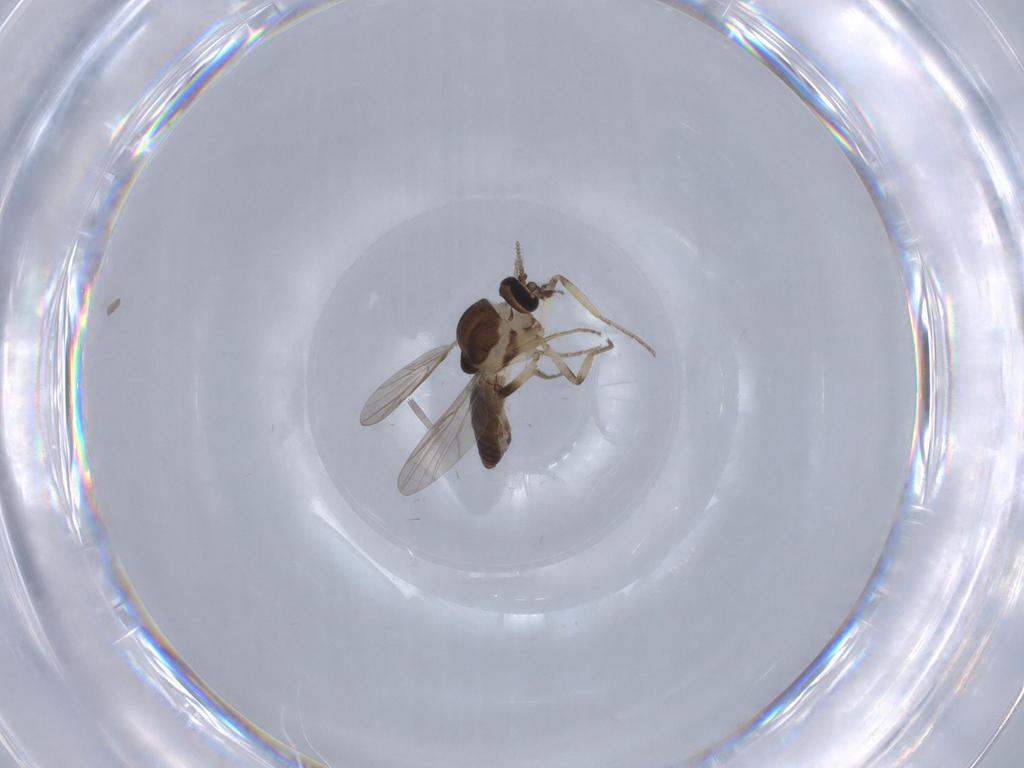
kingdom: Animalia
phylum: Arthropoda
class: Insecta
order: Diptera
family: Ceratopogonidae
